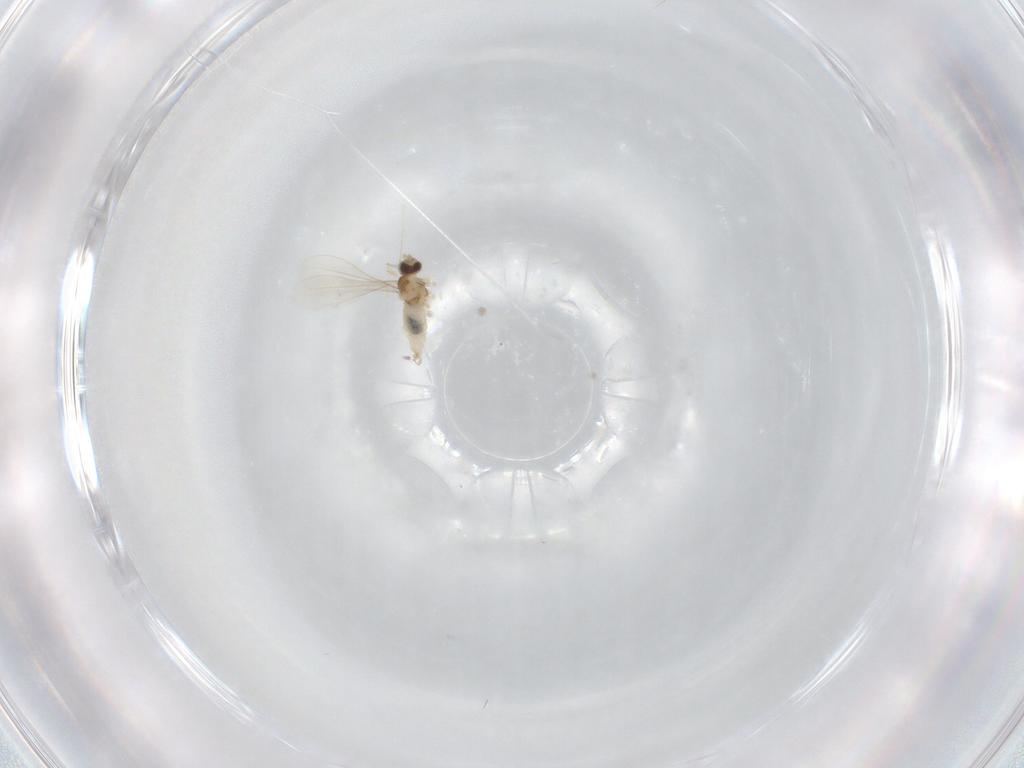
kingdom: Animalia
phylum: Arthropoda
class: Insecta
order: Diptera
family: Cecidomyiidae
